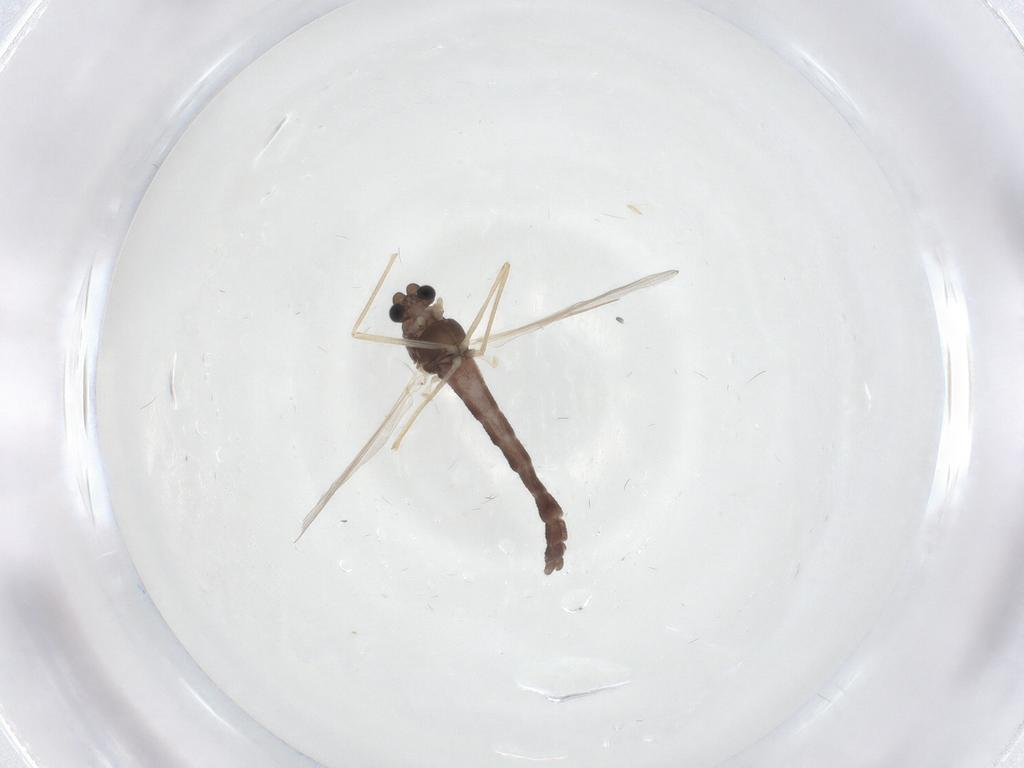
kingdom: Animalia
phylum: Arthropoda
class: Insecta
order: Diptera
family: Chironomidae
